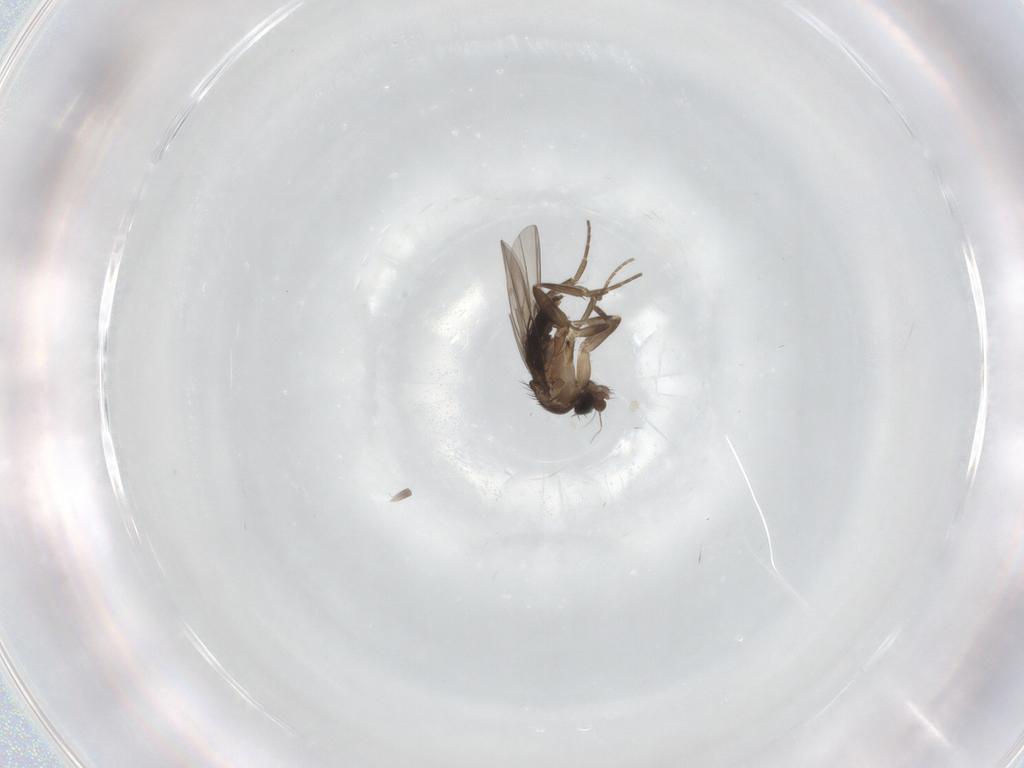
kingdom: Animalia
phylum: Arthropoda
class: Insecta
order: Diptera
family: Phoridae
